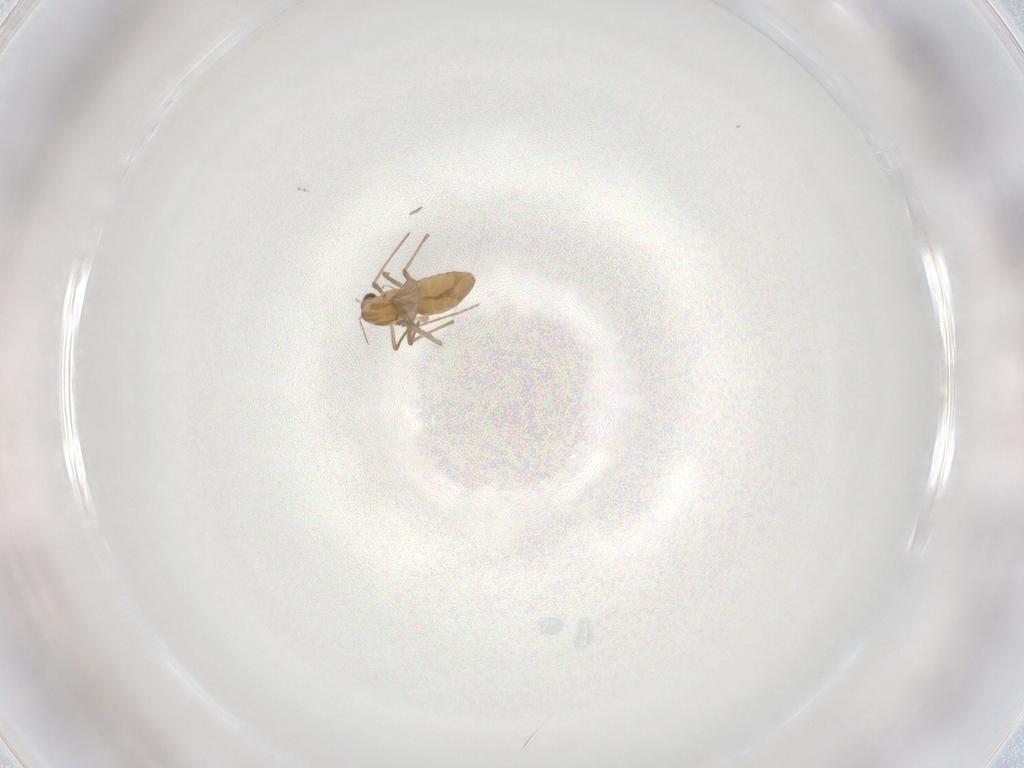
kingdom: Animalia
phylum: Arthropoda
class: Insecta
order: Diptera
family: Chironomidae
